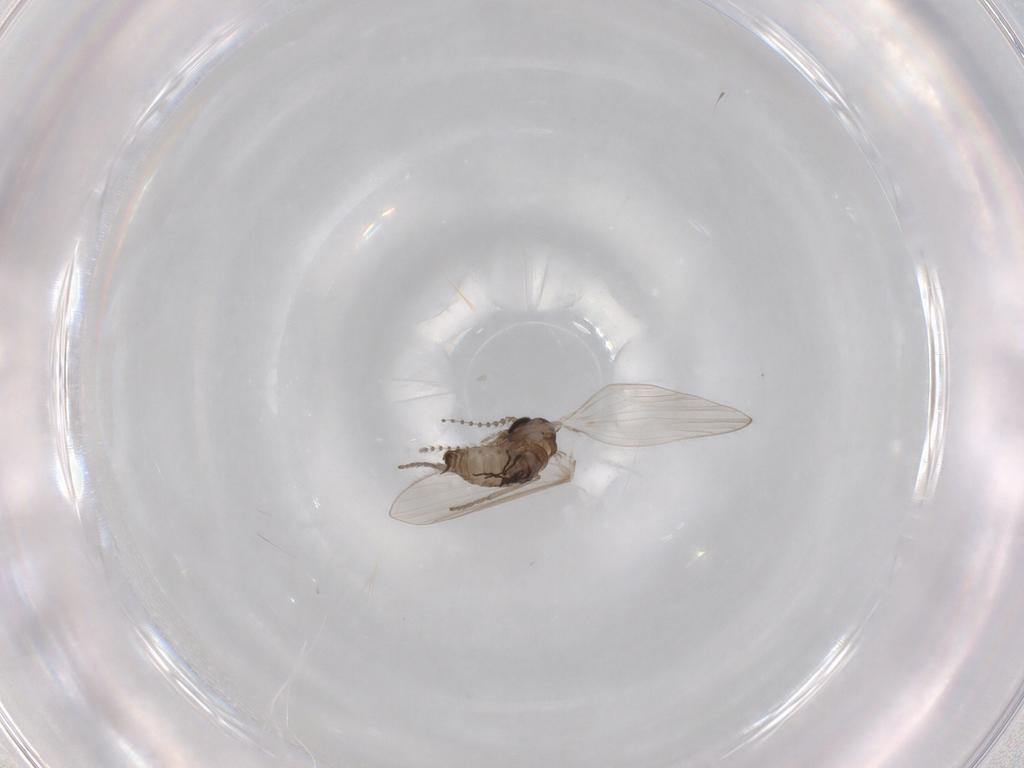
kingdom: Animalia
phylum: Arthropoda
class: Insecta
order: Diptera
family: Psychodidae
